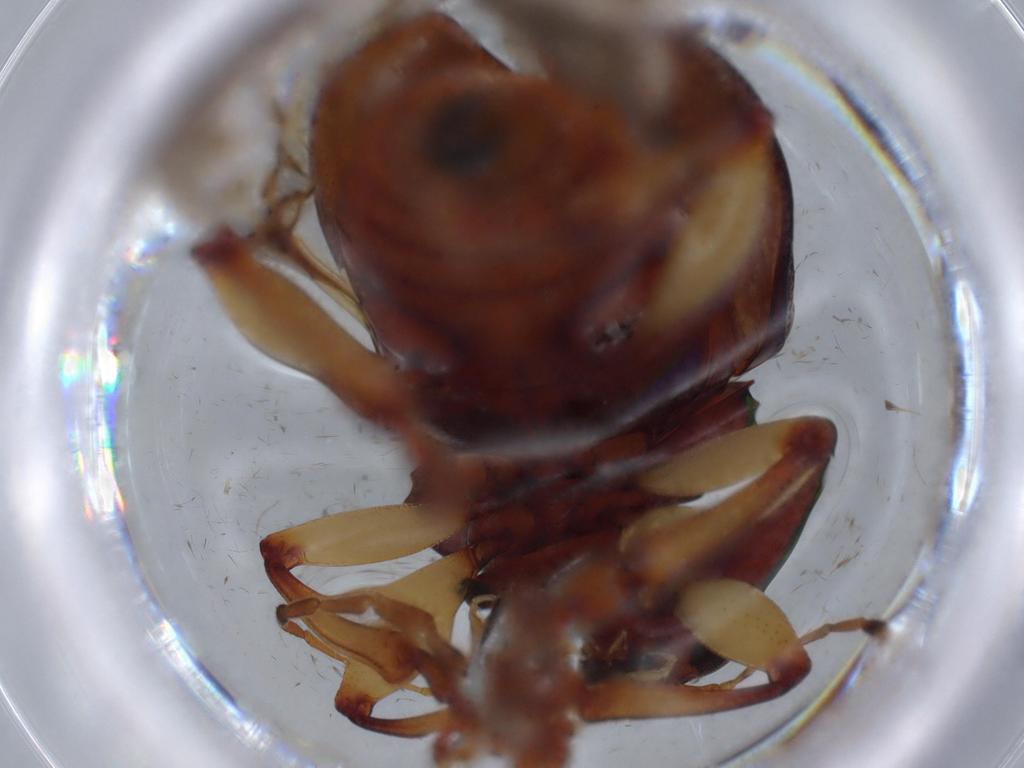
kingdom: Animalia
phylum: Arthropoda
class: Insecta
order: Coleoptera
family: Chrysomelidae
